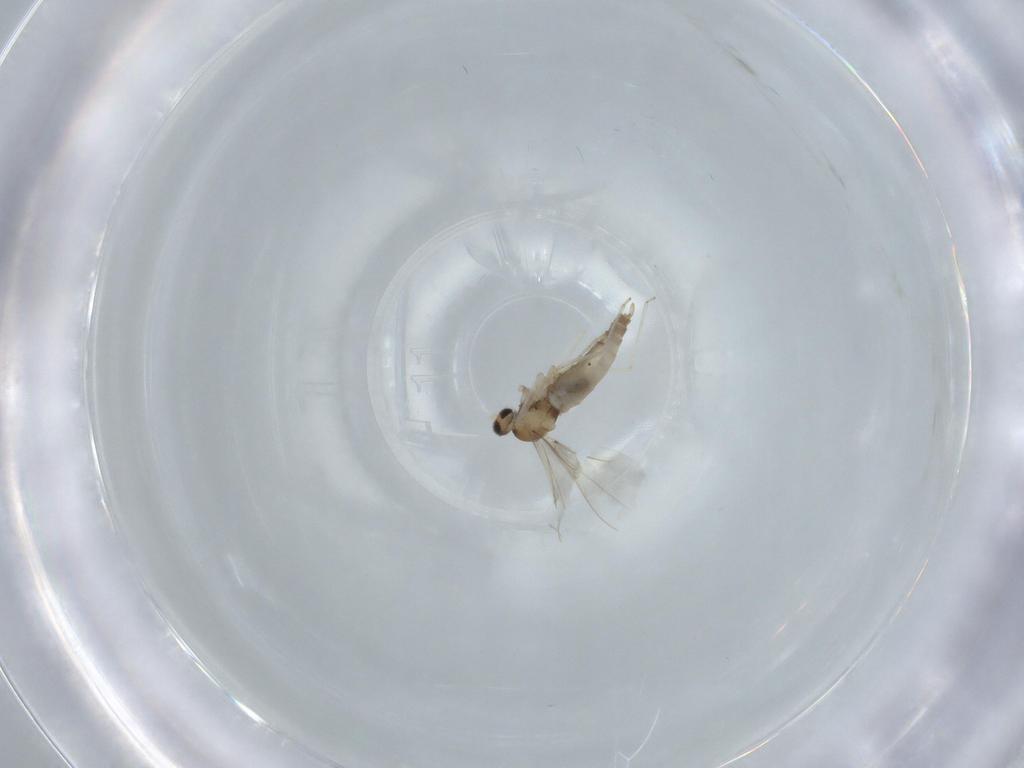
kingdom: Animalia
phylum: Arthropoda
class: Insecta
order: Diptera
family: Cecidomyiidae
